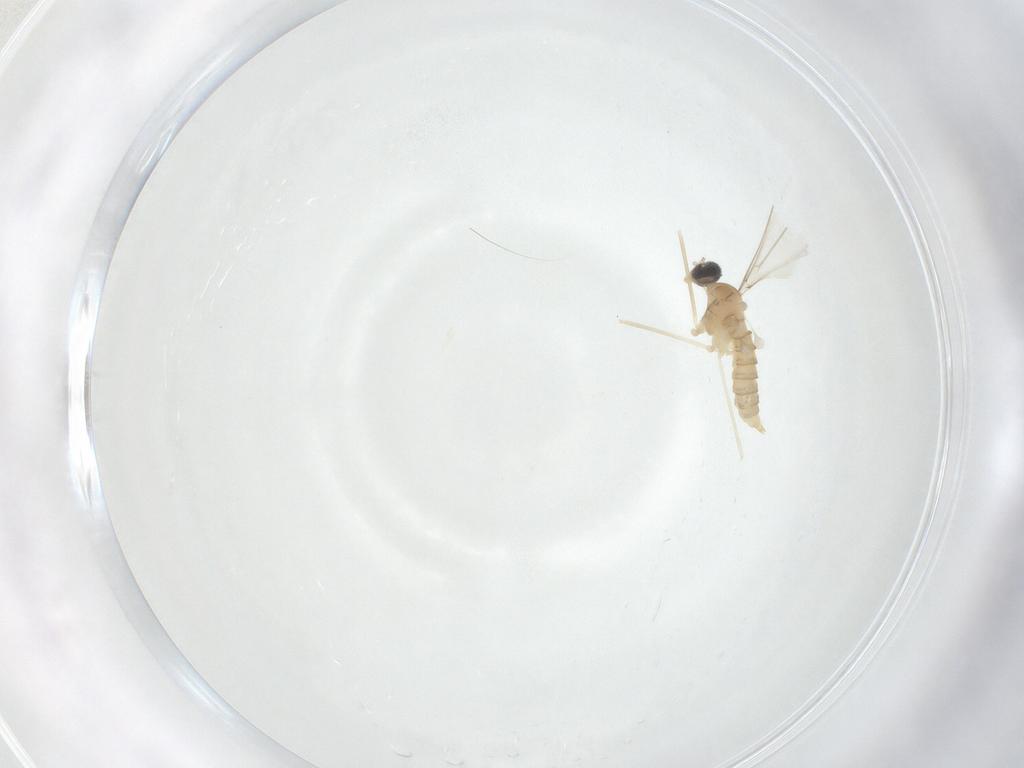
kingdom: Animalia
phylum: Arthropoda
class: Insecta
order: Diptera
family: Cecidomyiidae
